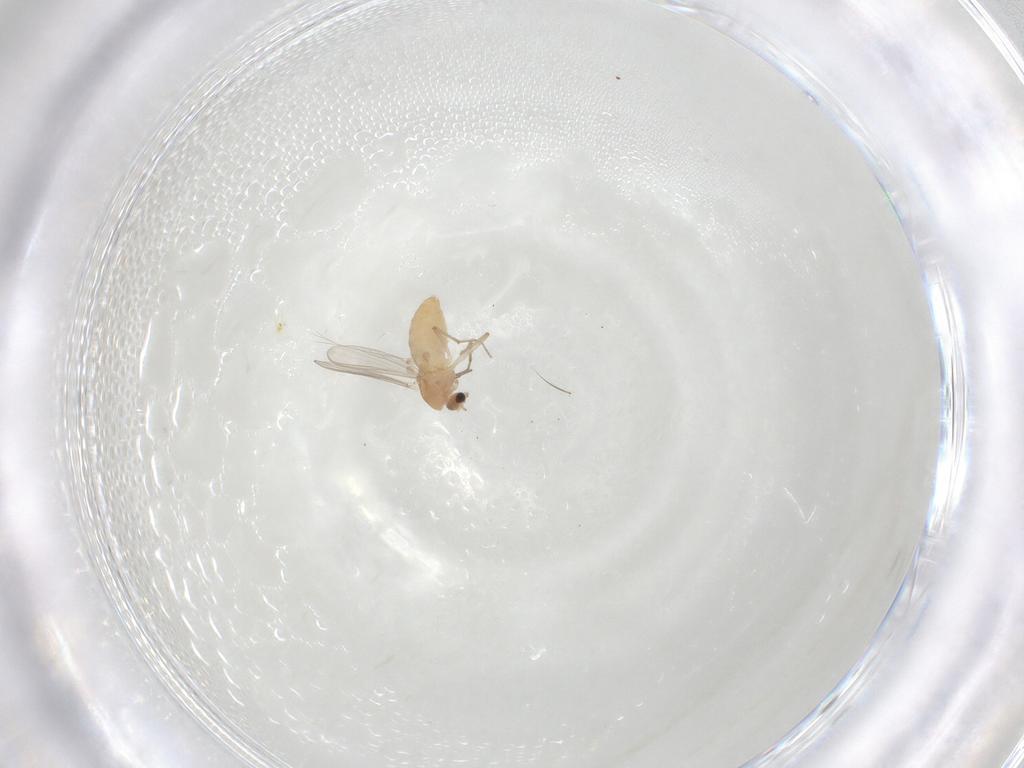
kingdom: Animalia
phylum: Arthropoda
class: Insecta
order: Diptera
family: Chironomidae
